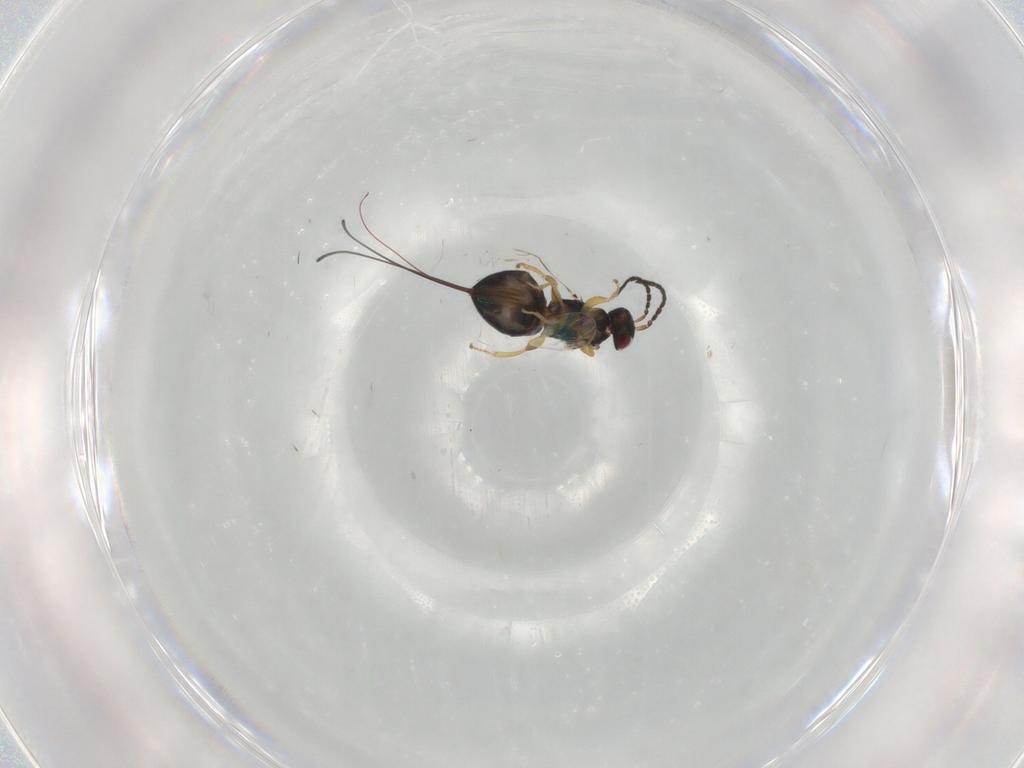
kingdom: Animalia
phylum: Arthropoda
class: Insecta
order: Hymenoptera
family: Pteromalidae
